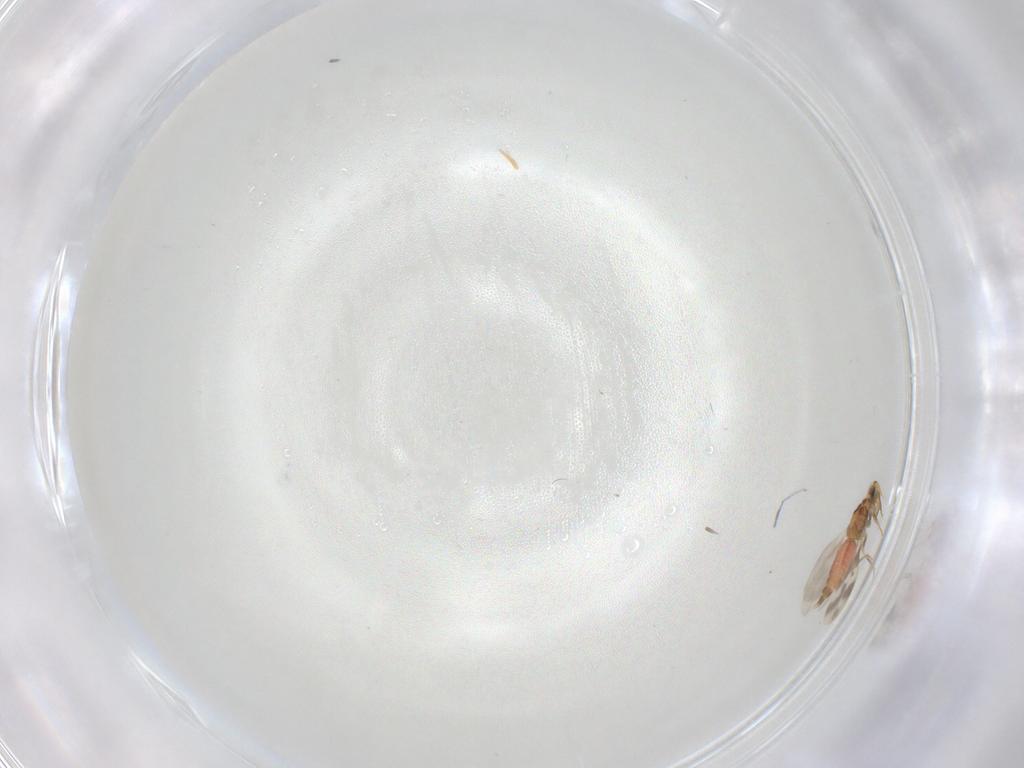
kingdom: Animalia
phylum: Arthropoda
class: Insecta
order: Hemiptera
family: Aleyrodidae
